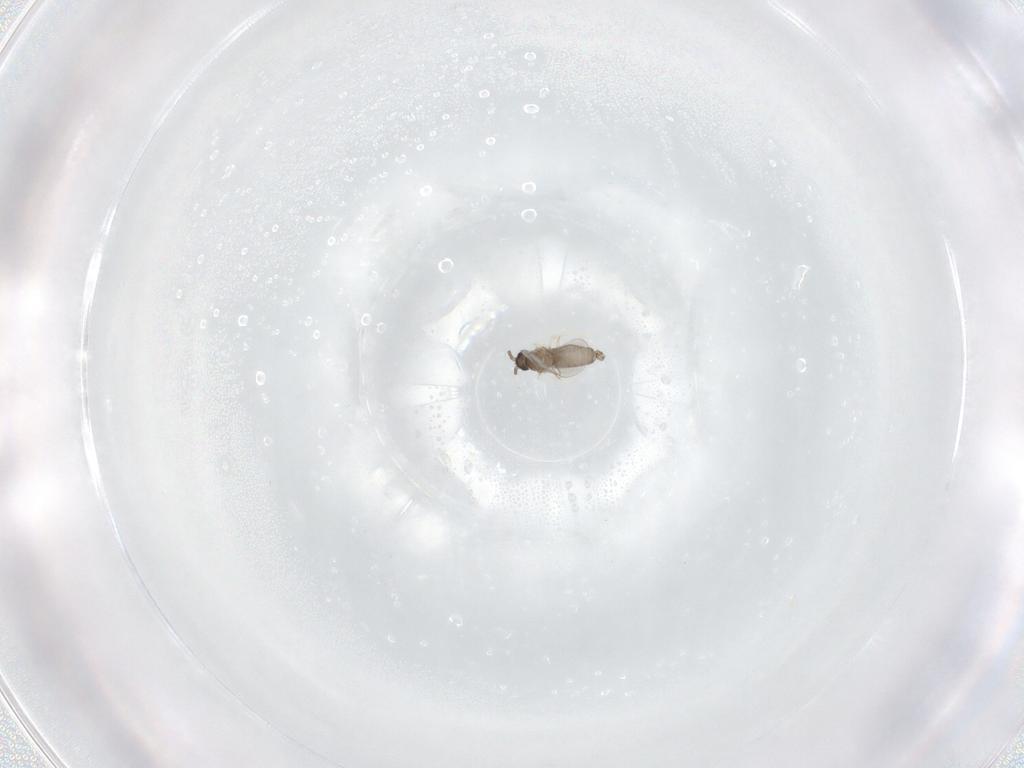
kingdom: Animalia
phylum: Arthropoda
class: Insecta
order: Diptera
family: Cecidomyiidae
